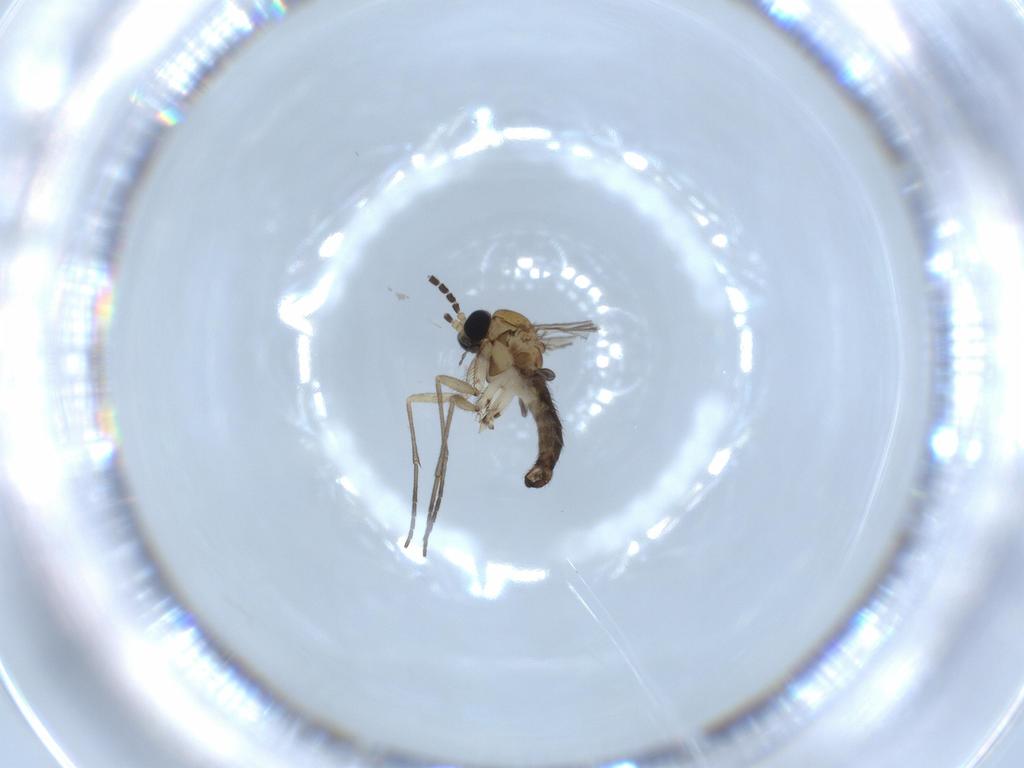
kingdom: Animalia
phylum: Arthropoda
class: Insecta
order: Diptera
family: Sciaridae
